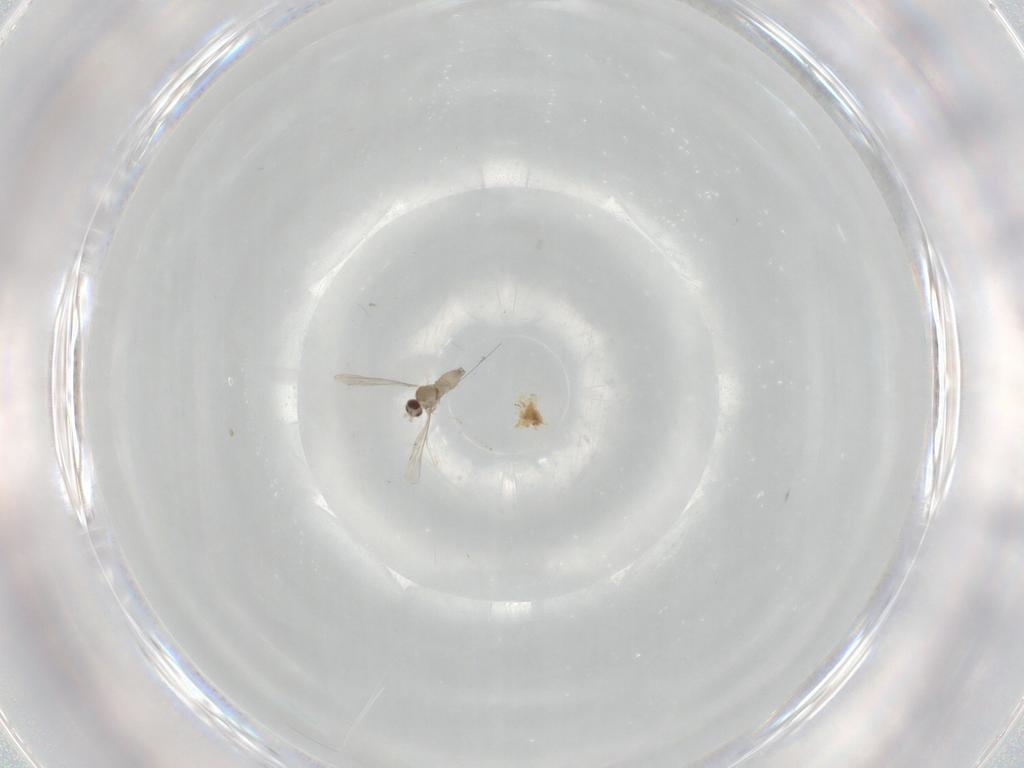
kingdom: Animalia
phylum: Arthropoda
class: Insecta
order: Diptera
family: Cecidomyiidae
